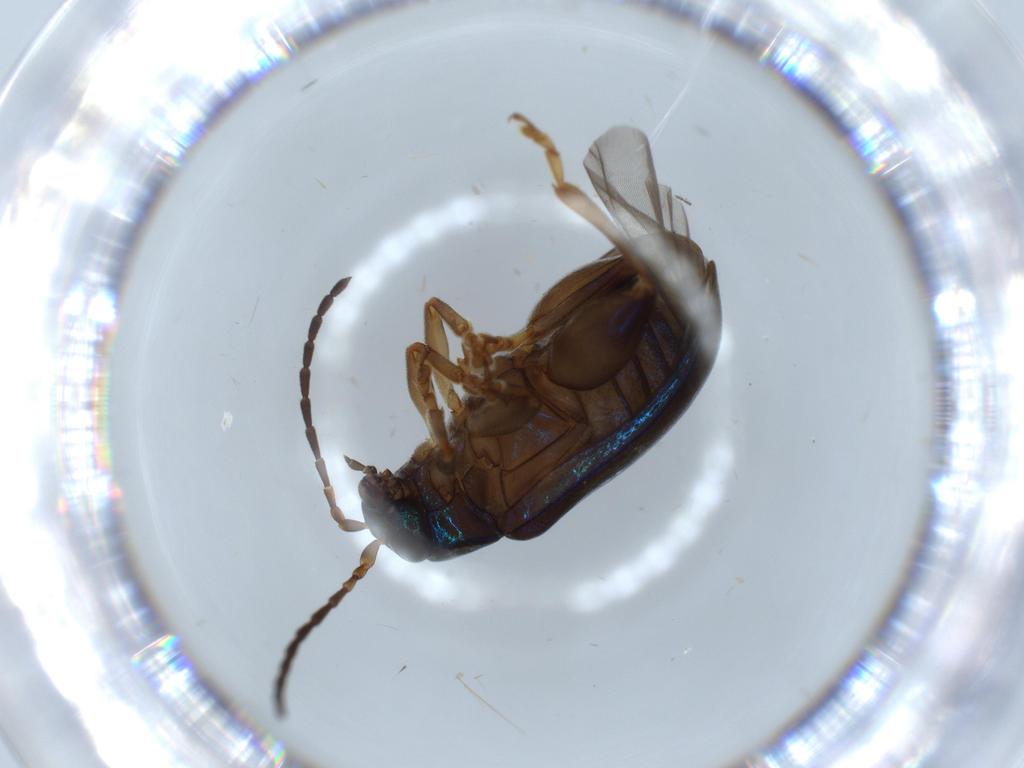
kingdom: Animalia
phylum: Arthropoda
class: Insecta
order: Coleoptera
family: Chrysomelidae
